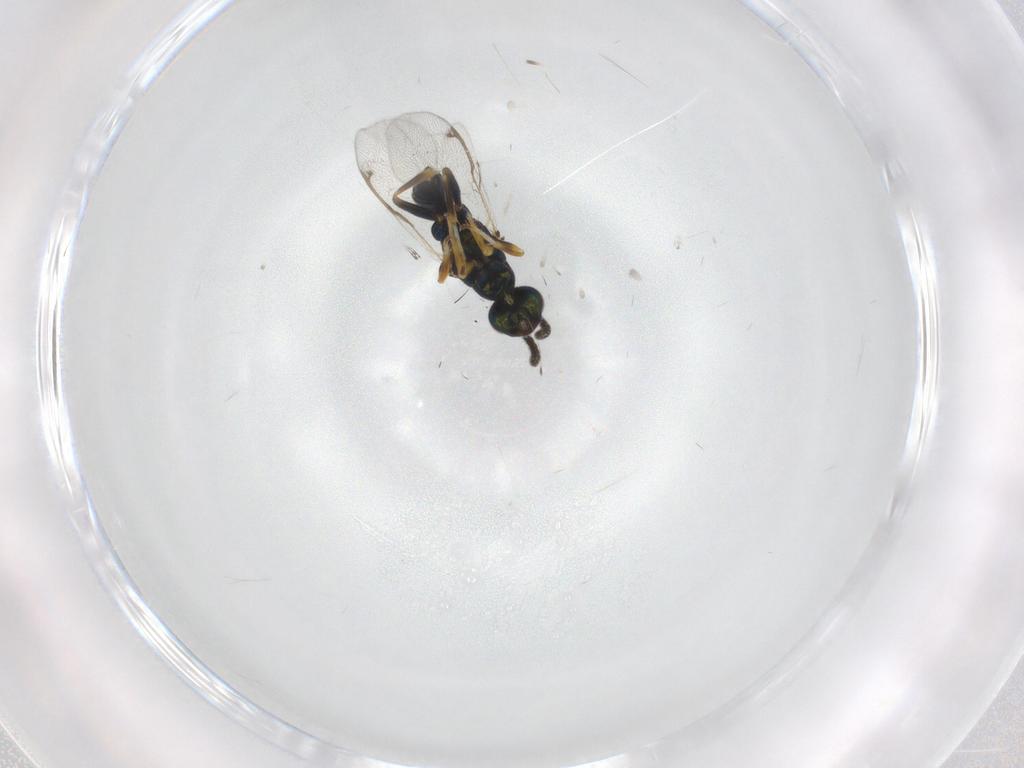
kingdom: Animalia
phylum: Arthropoda
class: Insecta
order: Hymenoptera
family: Torymidae
